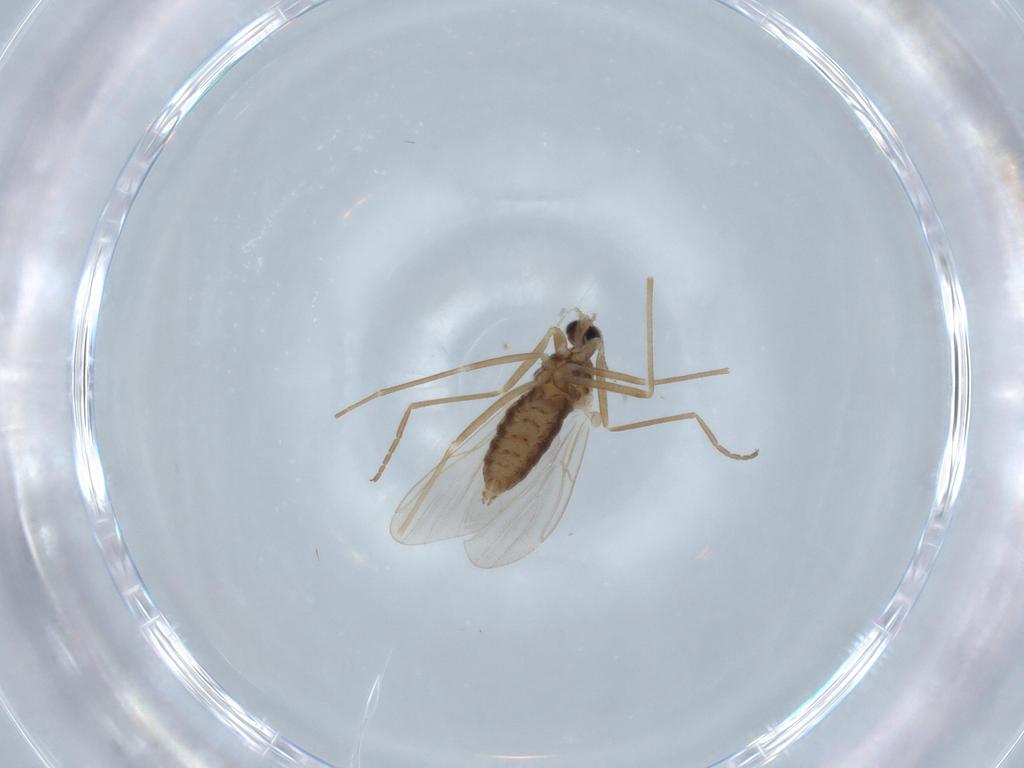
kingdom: Animalia
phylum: Arthropoda
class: Insecta
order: Diptera
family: Cecidomyiidae
